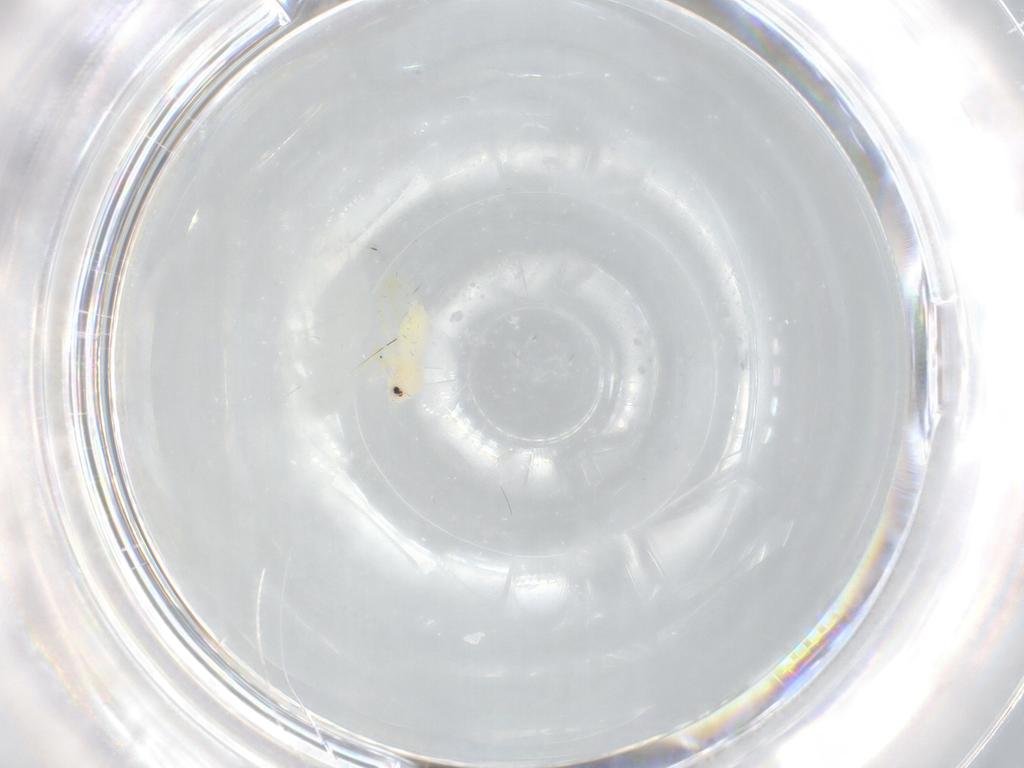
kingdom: Animalia
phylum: Arthropoda
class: Insecta
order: Hemiptera
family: Aleyrodidae
